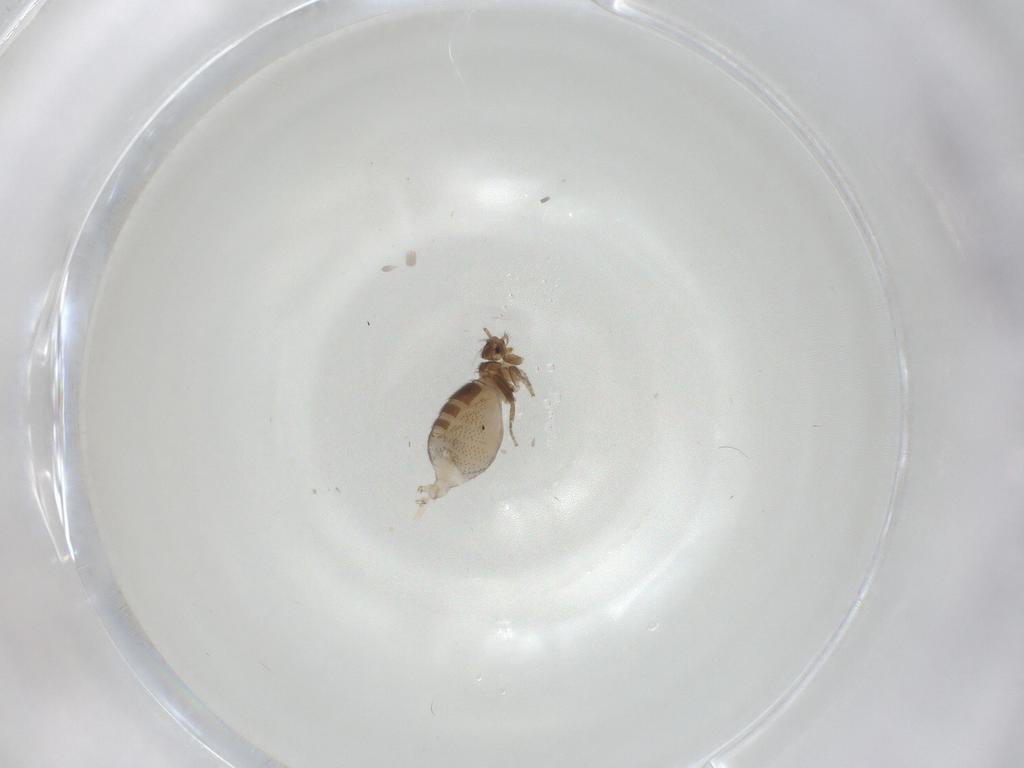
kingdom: Animalia
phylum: Arthropoda
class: Insecta
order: Diptera
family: Phoridae
